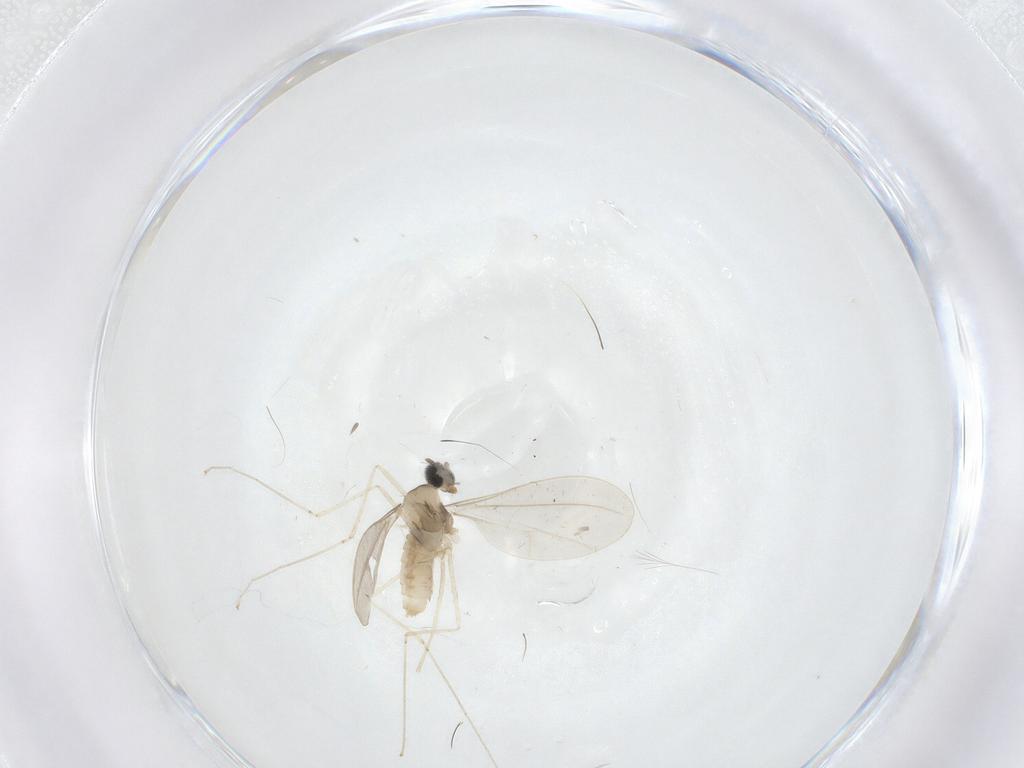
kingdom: Animalia
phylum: Arthropoda
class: Insecta
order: Diptera
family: Cecidomyiidae
